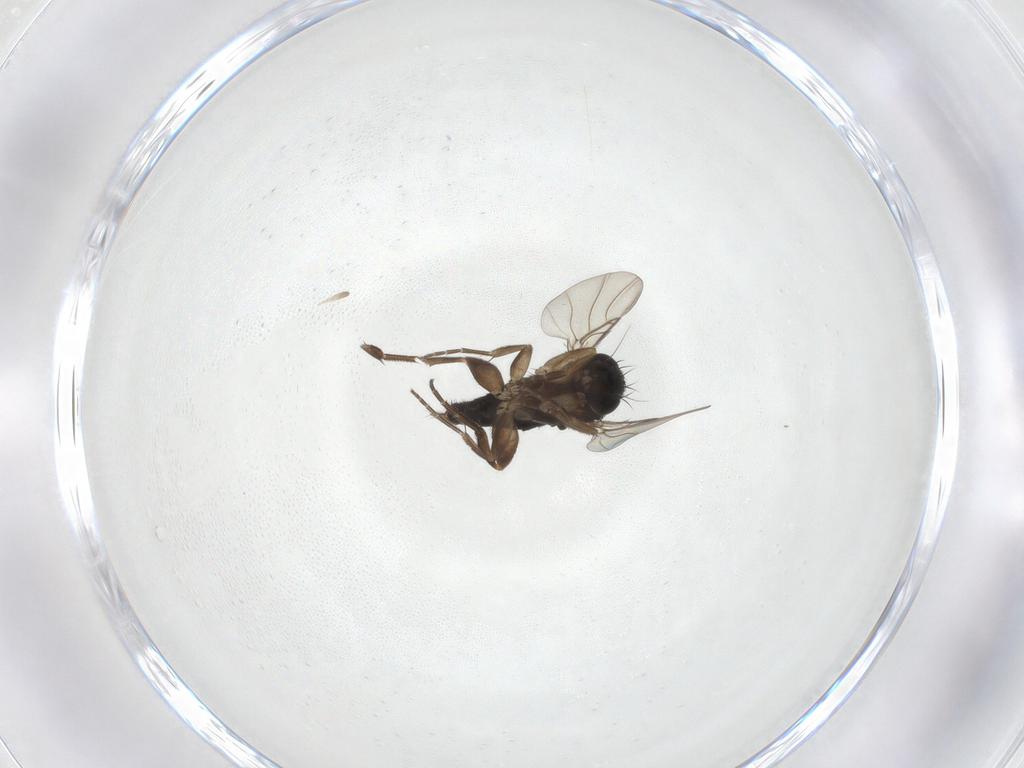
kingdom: Animalia
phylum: Arthropoda
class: Insecta
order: Diptera
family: Phoridae
